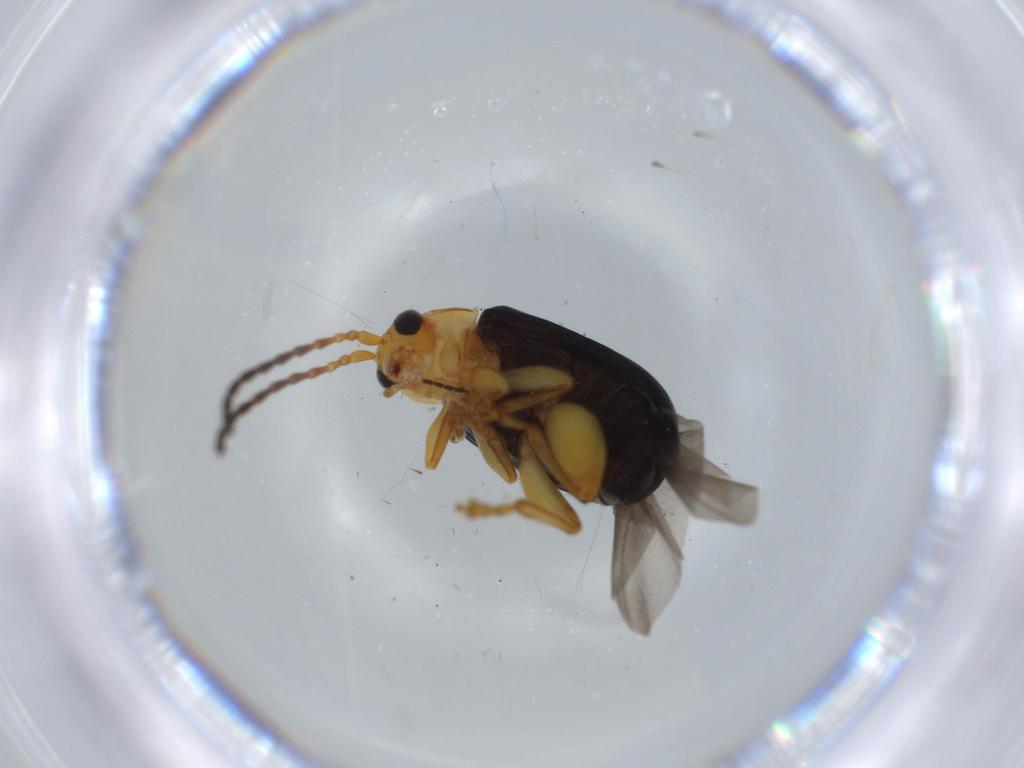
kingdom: Animalia
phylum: Arthropoda
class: Insecta
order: Coleoptera
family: Chrysomelidae
